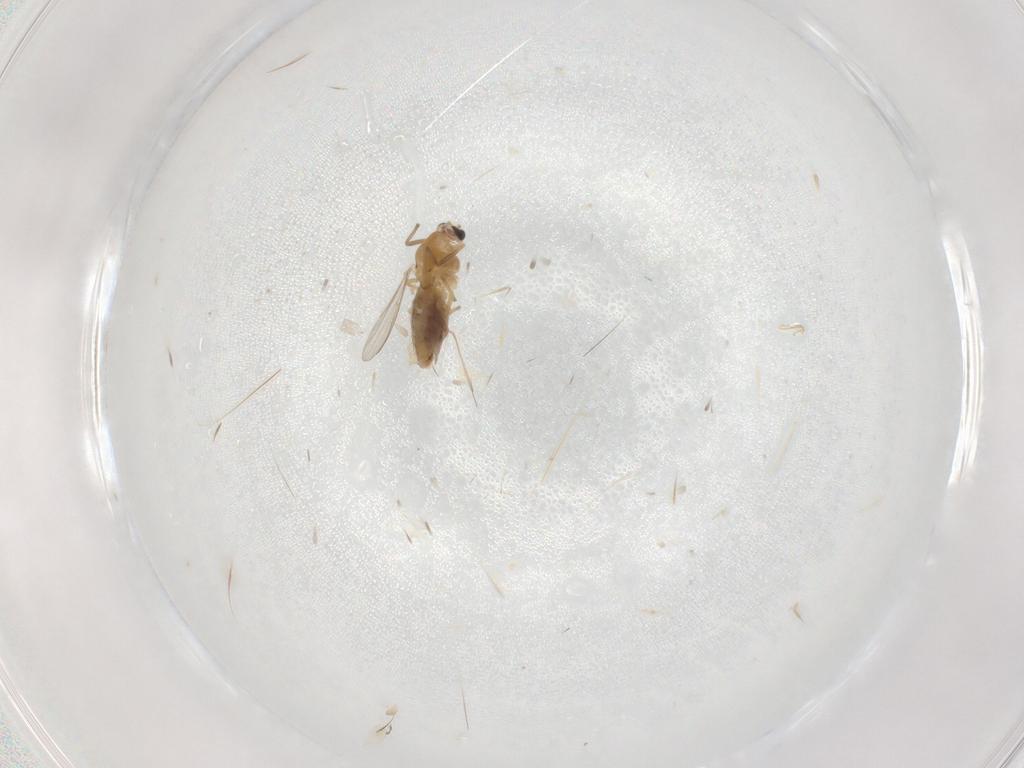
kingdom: Animalia
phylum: Arthropoda
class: Insecta
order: Diptera
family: Chironomidae
